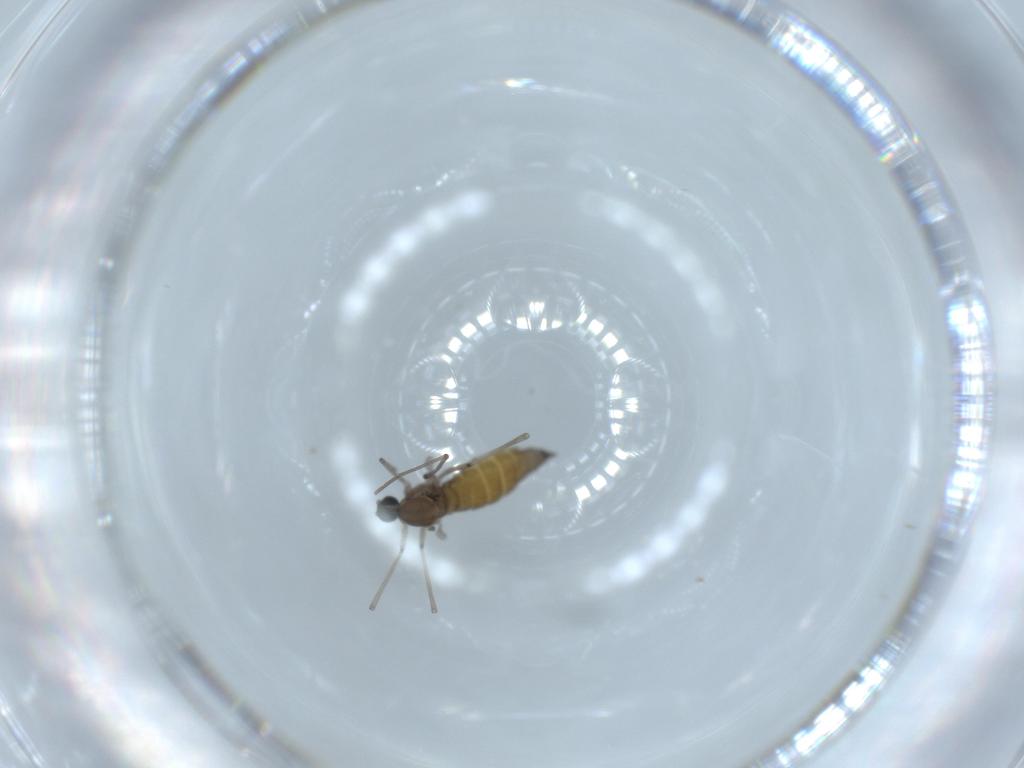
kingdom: Animalia
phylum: Arthropoda
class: Insecta
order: Diptera
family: Cecidomyiidae
